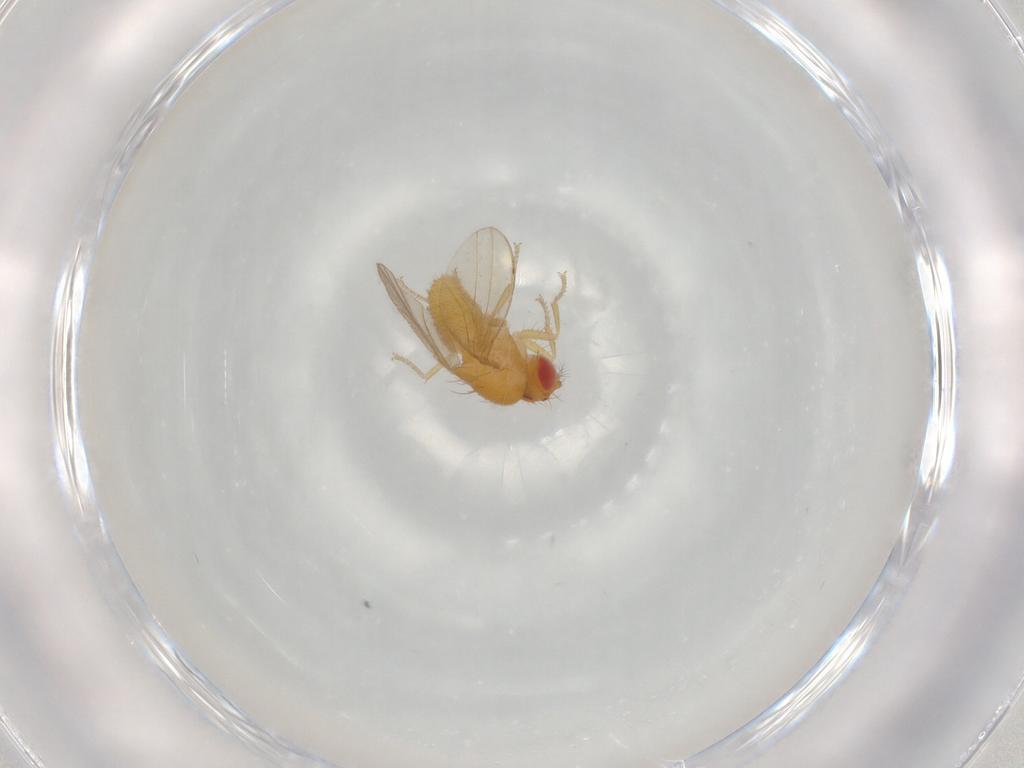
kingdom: Animalia
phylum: Arthropoda
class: Insecta
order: Diptera
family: Drosophilidae
